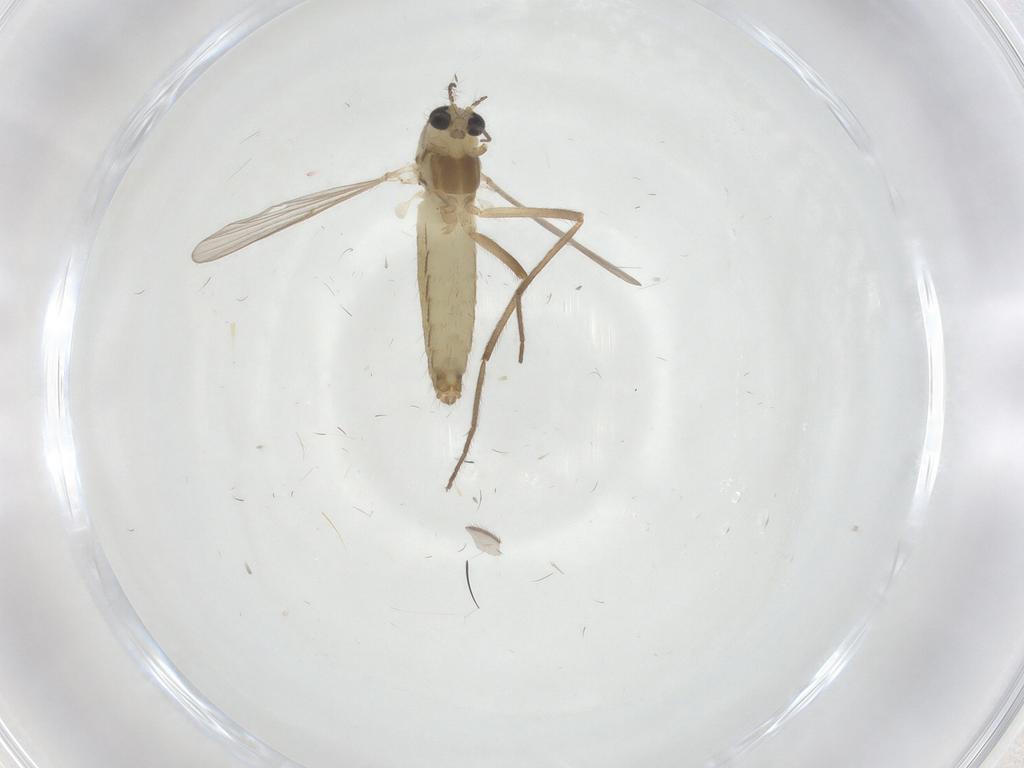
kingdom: Animalia
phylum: Arthropoda
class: Insecta
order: Diptera
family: Chironomidae
